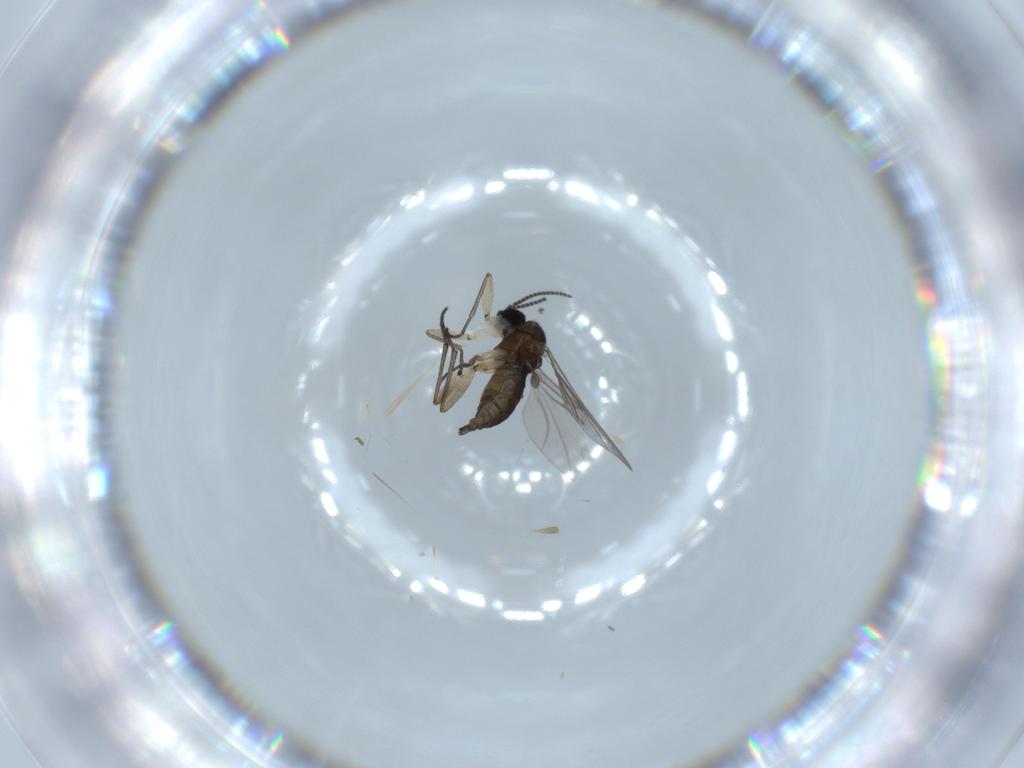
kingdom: Animalia
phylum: Arthropoda
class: Insecta
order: Diptera
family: Sciaridae
